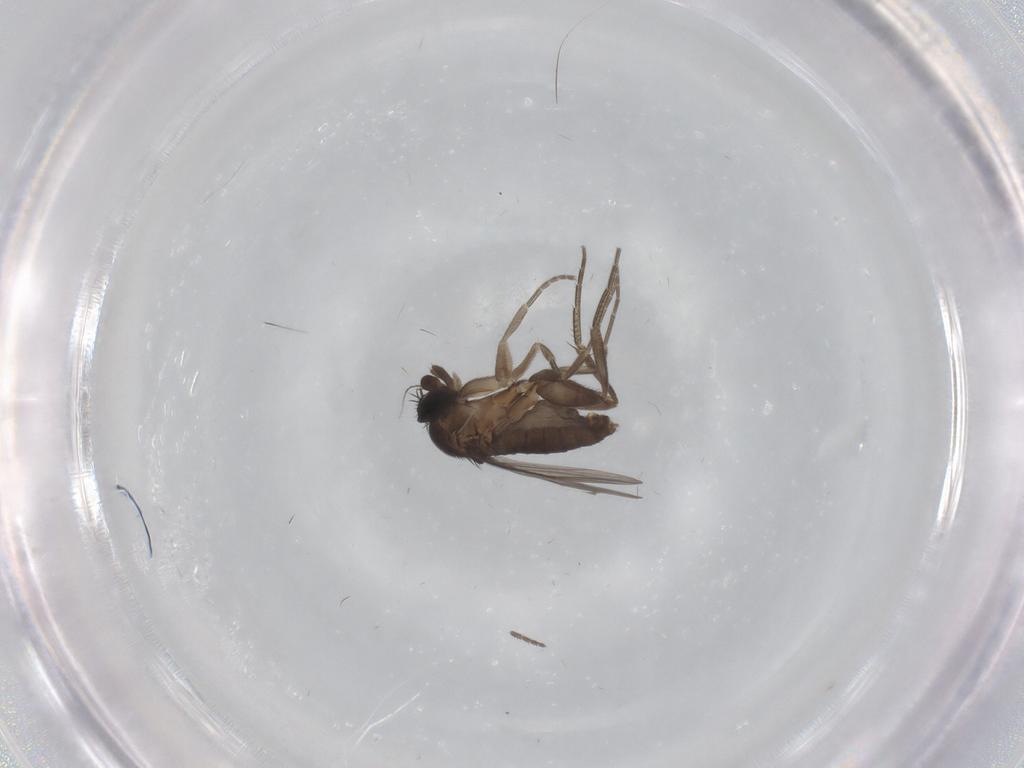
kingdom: Animalia
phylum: Arthropoda
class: Insecta
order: Diptera
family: Phoridae
